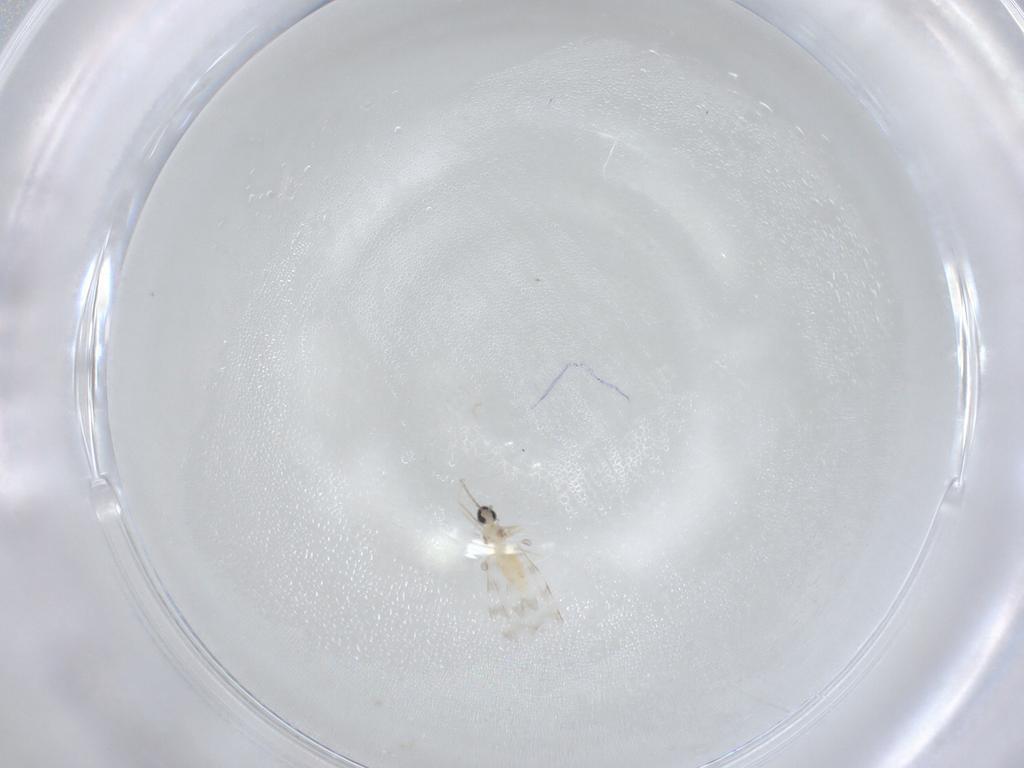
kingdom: Animalia
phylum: Arthropoda
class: Insecta
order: Diptera
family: Cecidomyiidae
